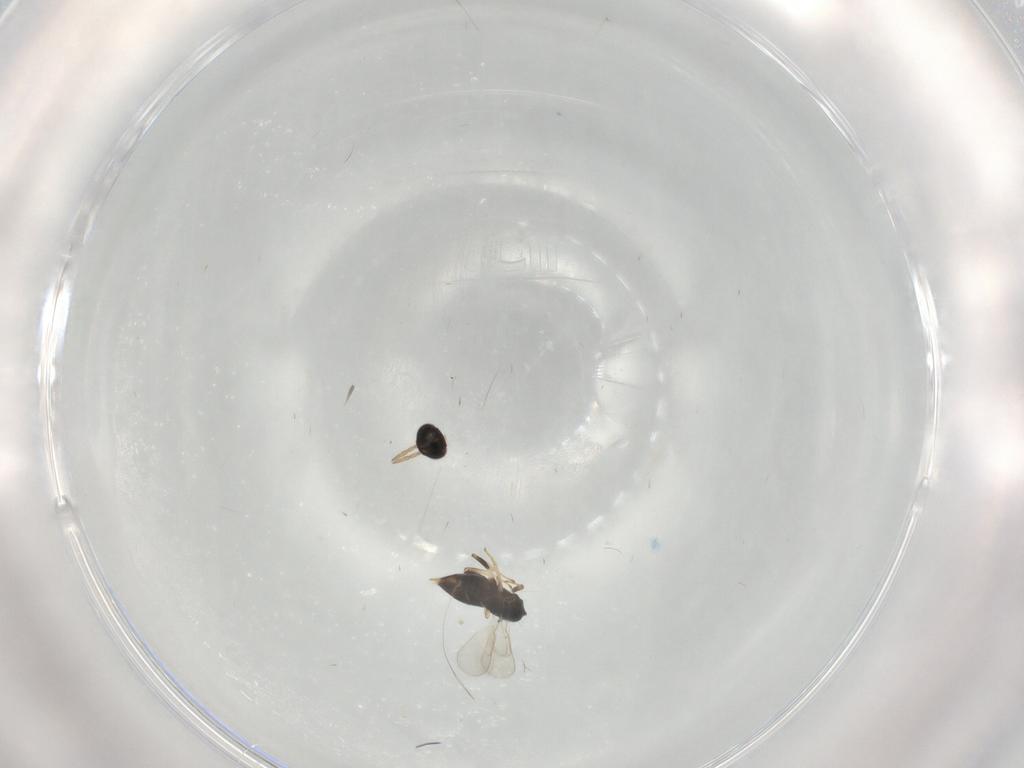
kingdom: Animalia
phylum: Arthropoda
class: Insecta
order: Hymenoptera
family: Aphelinidae
